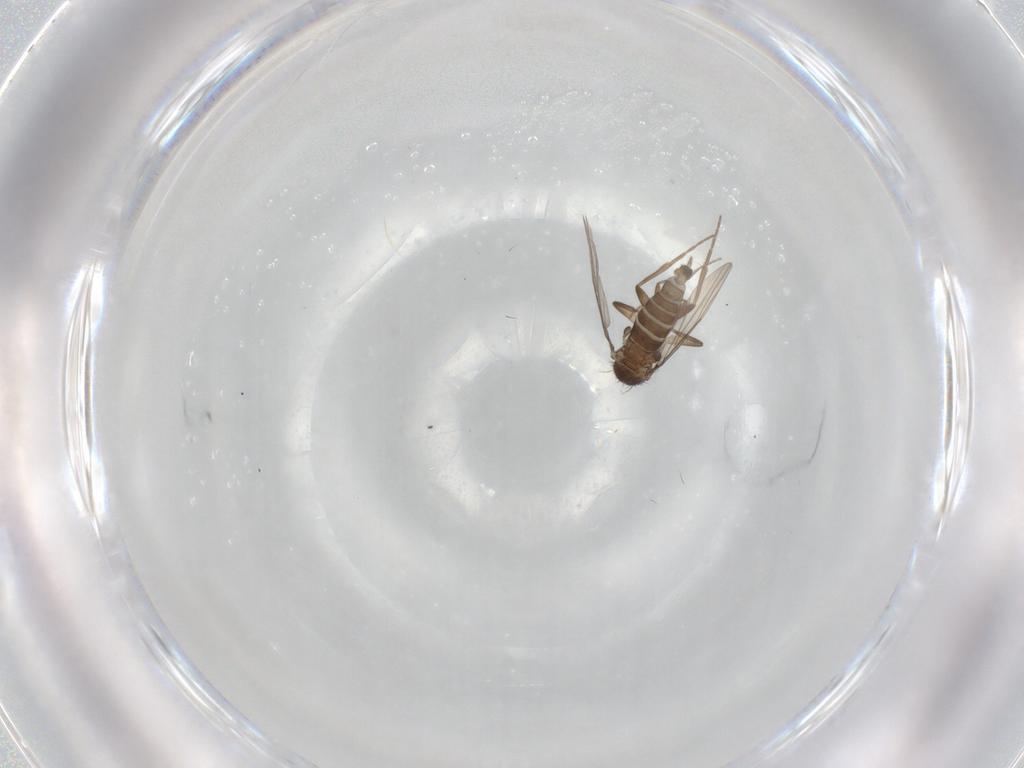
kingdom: Animalia
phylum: Arthropoda
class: Insecta
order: Diptera
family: Phoridae
